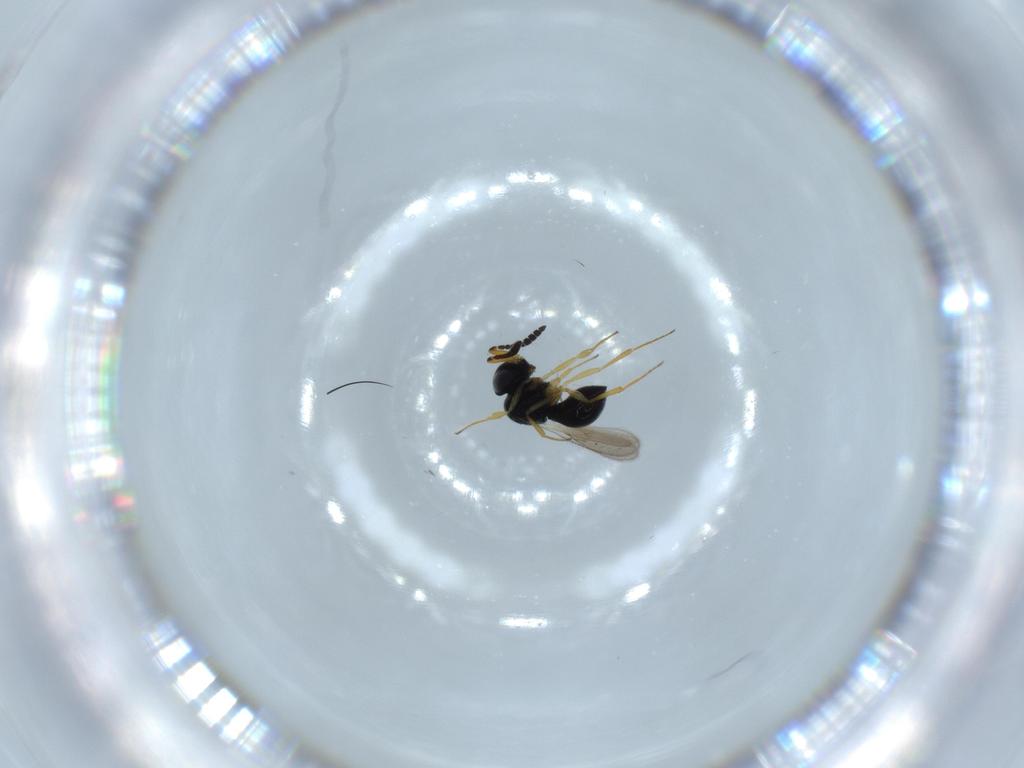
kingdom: Animalia
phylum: Arthropoda
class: Insecta
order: Hymenoptera
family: Scelionidae
